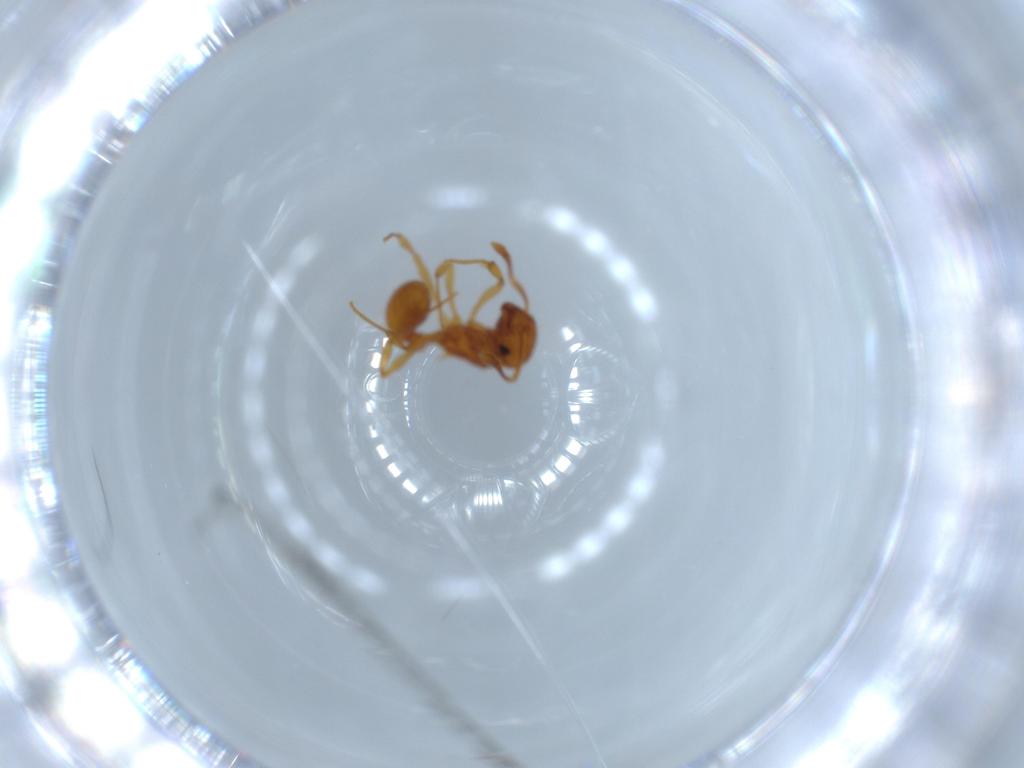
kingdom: Animalia
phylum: Arthropoda
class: Insecta
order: Hymenoptera
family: Formicidae
